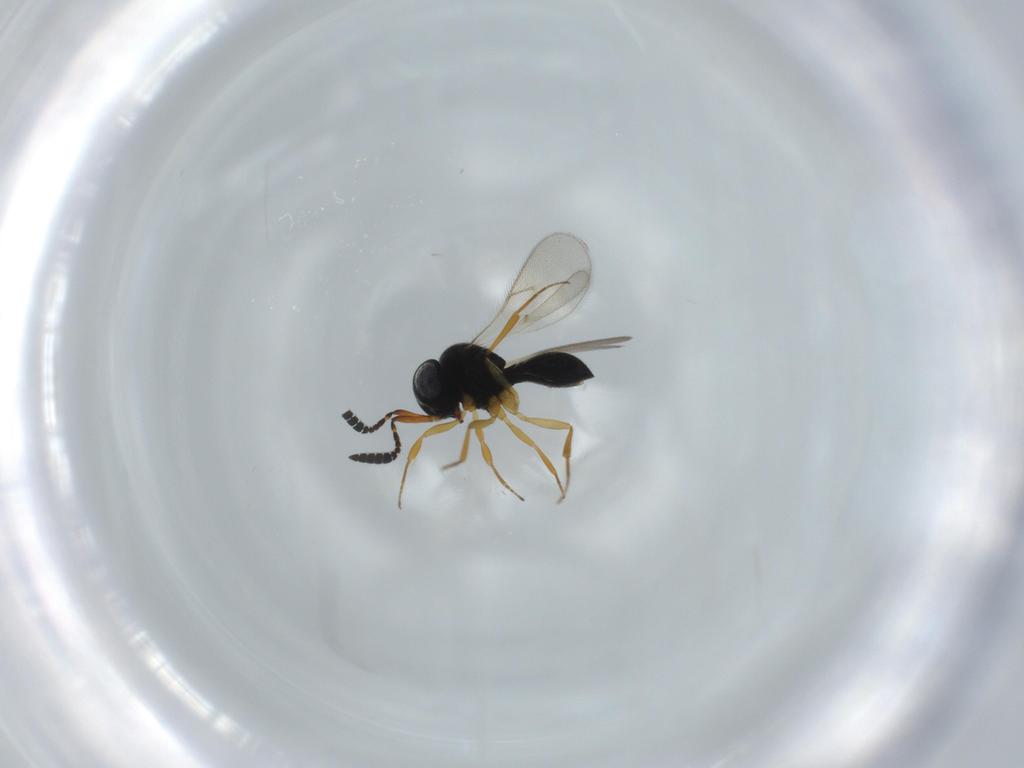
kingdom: Animalia
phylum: Arthropoda
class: Insecta
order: Hymenoptera
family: Scelionidae
